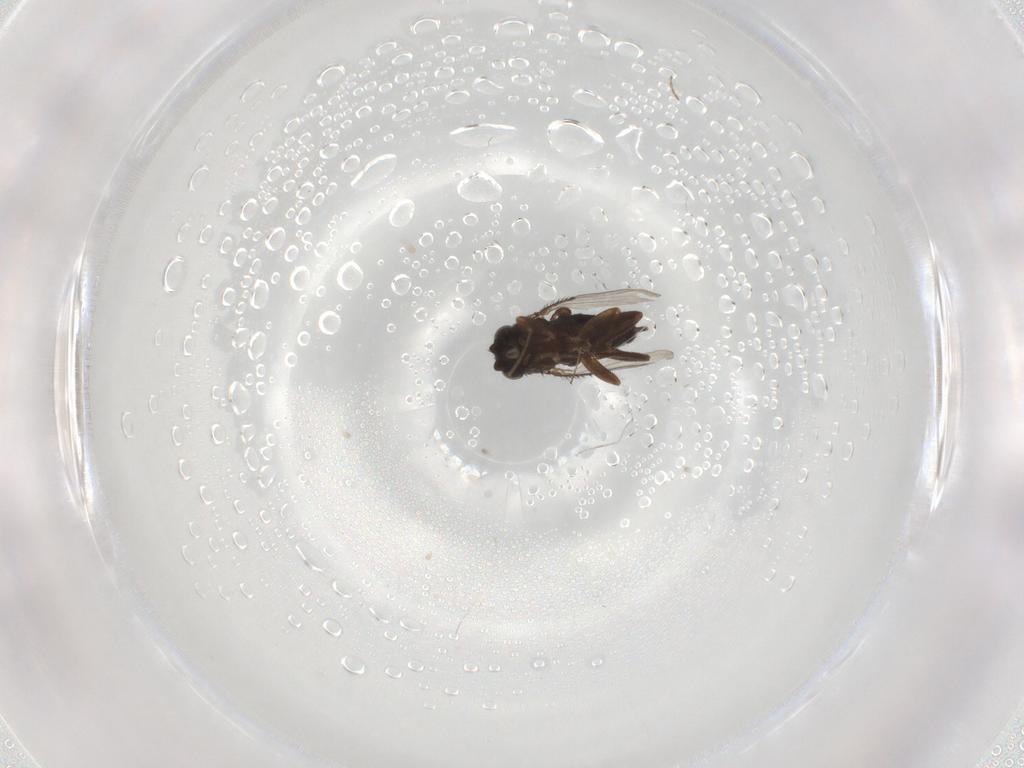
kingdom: Animalia
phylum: Arthropoda
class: Insecta
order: Diptera
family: Phoridae
